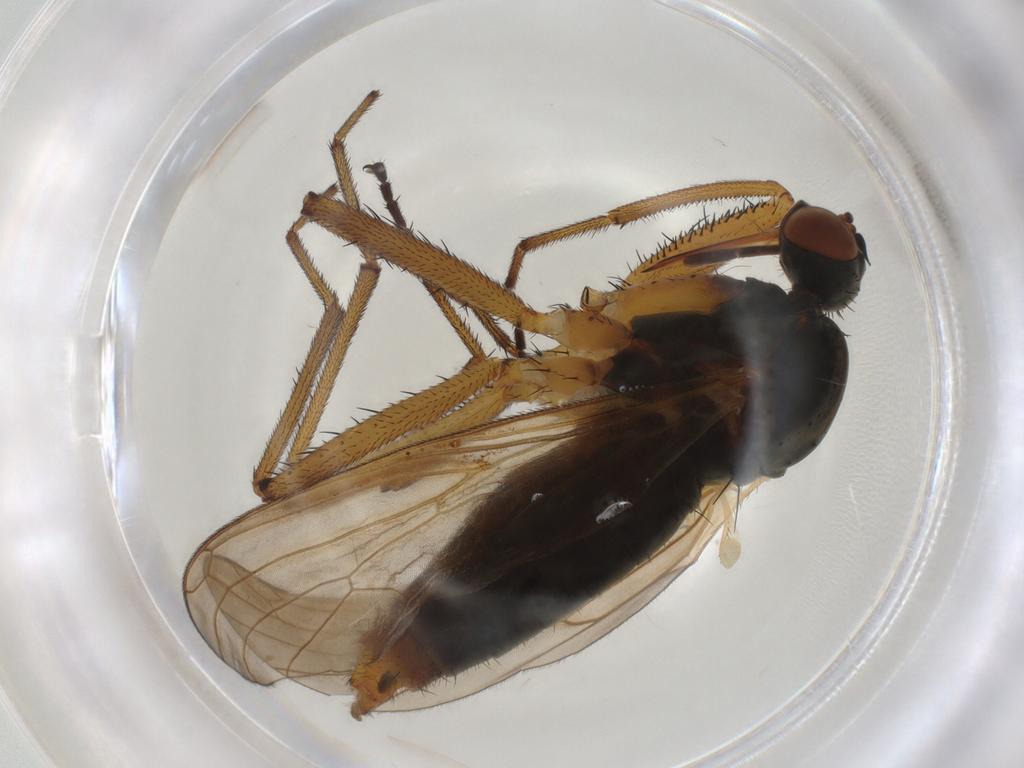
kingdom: Animalia
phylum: Arthropoda
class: Insecta
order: Diptera
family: Empididae
